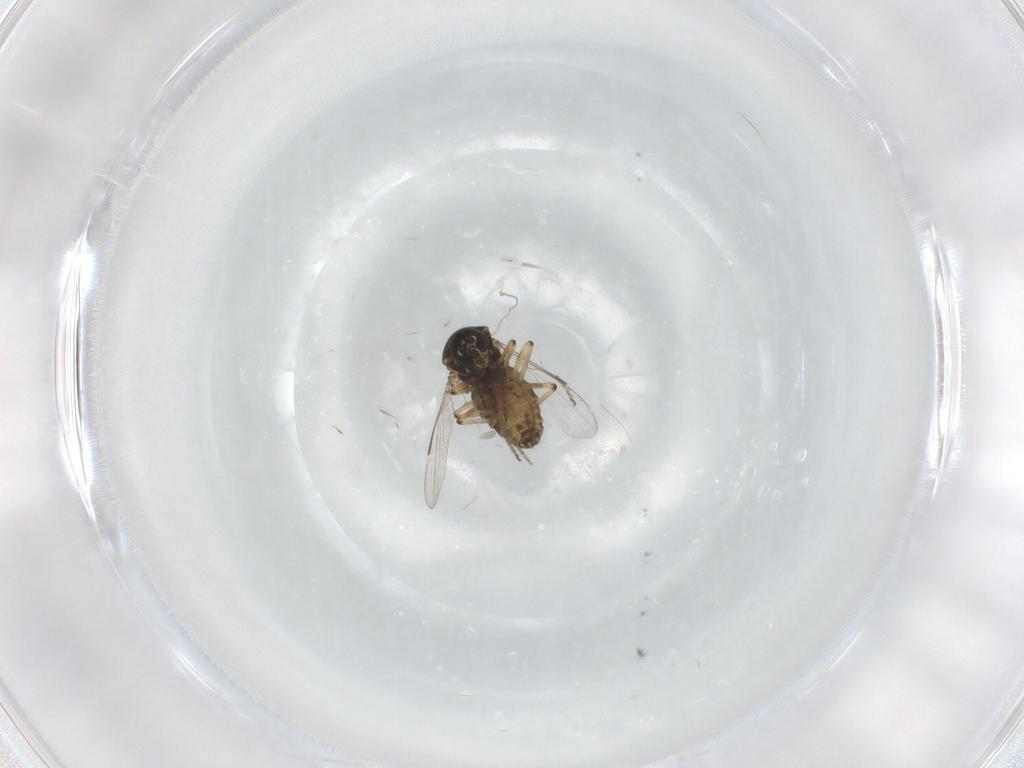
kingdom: Animalia
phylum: Arthropoda
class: Insecta
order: Diptera
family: Ceratopogonidae
